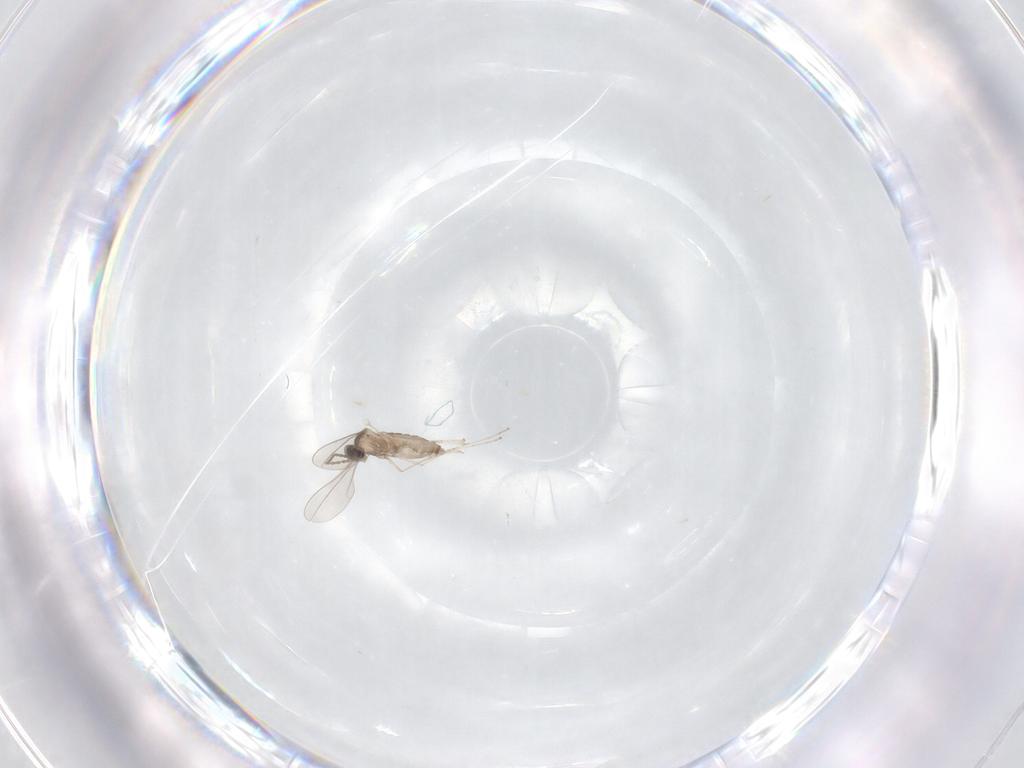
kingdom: Animalia
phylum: Arthropoda
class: Insecta
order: Diptera
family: Cecidomyiidae
